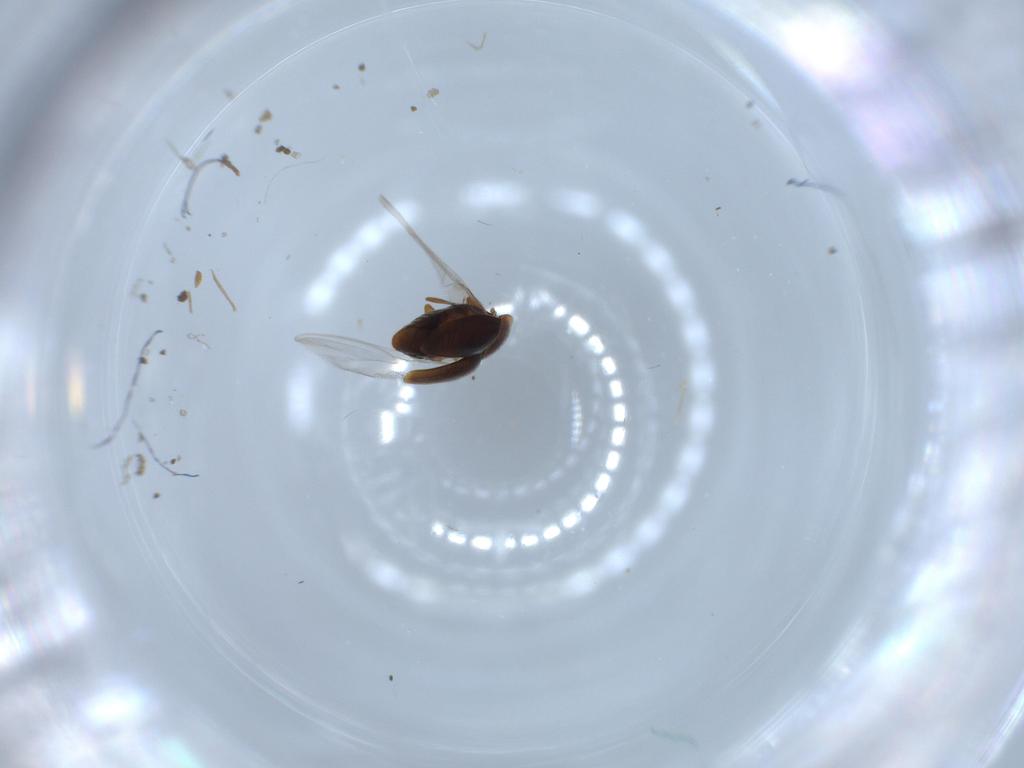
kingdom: Animalia
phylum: Arthropoda
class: Insecta
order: Coleoptera
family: Corylophidae
